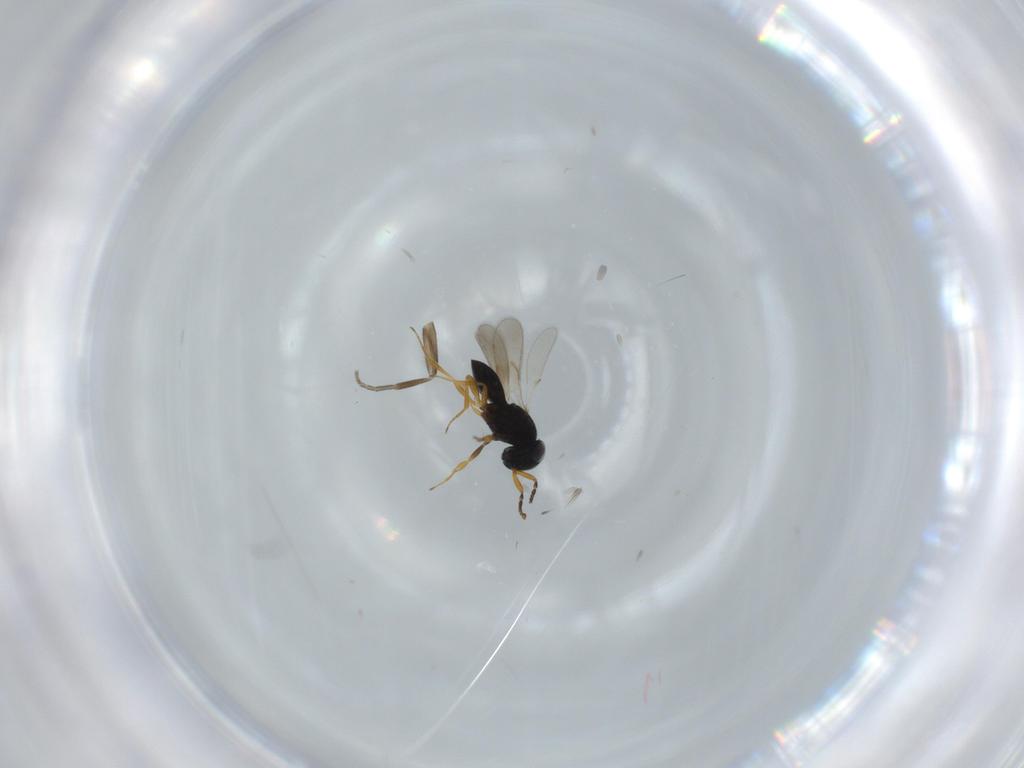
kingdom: Animalia
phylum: Arthropoda
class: Insecta
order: Hymenoptera
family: Scelionidae
